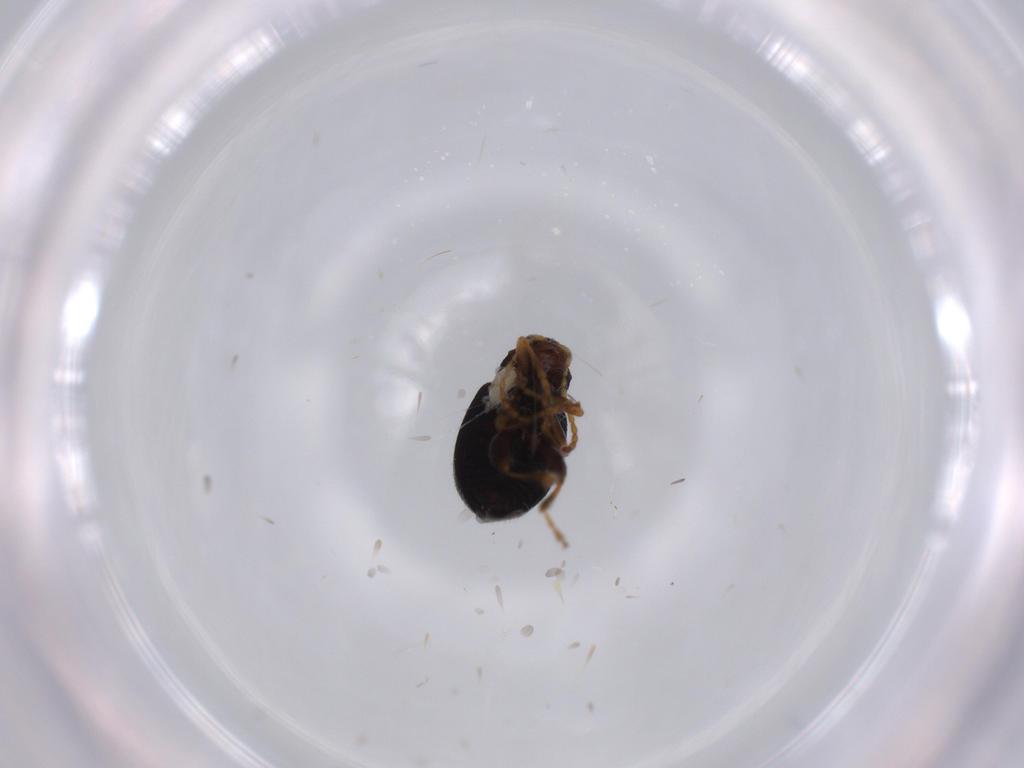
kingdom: Animalia
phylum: Arthropoda
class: Insecta
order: Coleoptera
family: Chrysomelidae
